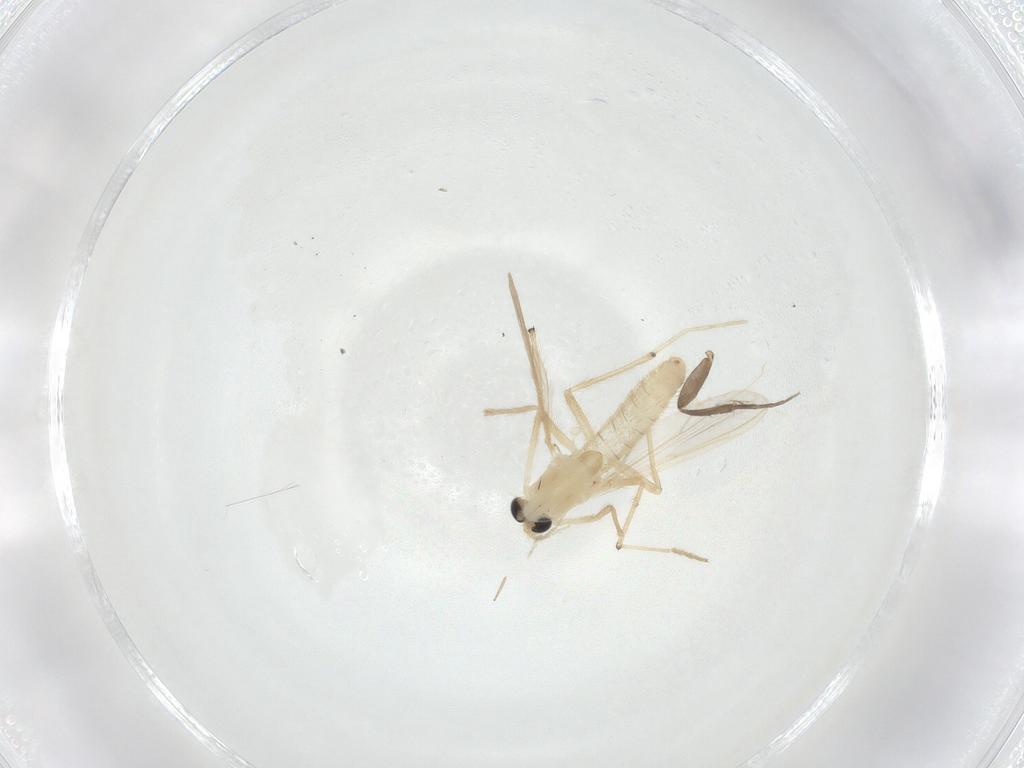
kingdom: Animalia
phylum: Arthropoda
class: Insecta
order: Diptera
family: Chironomidae
